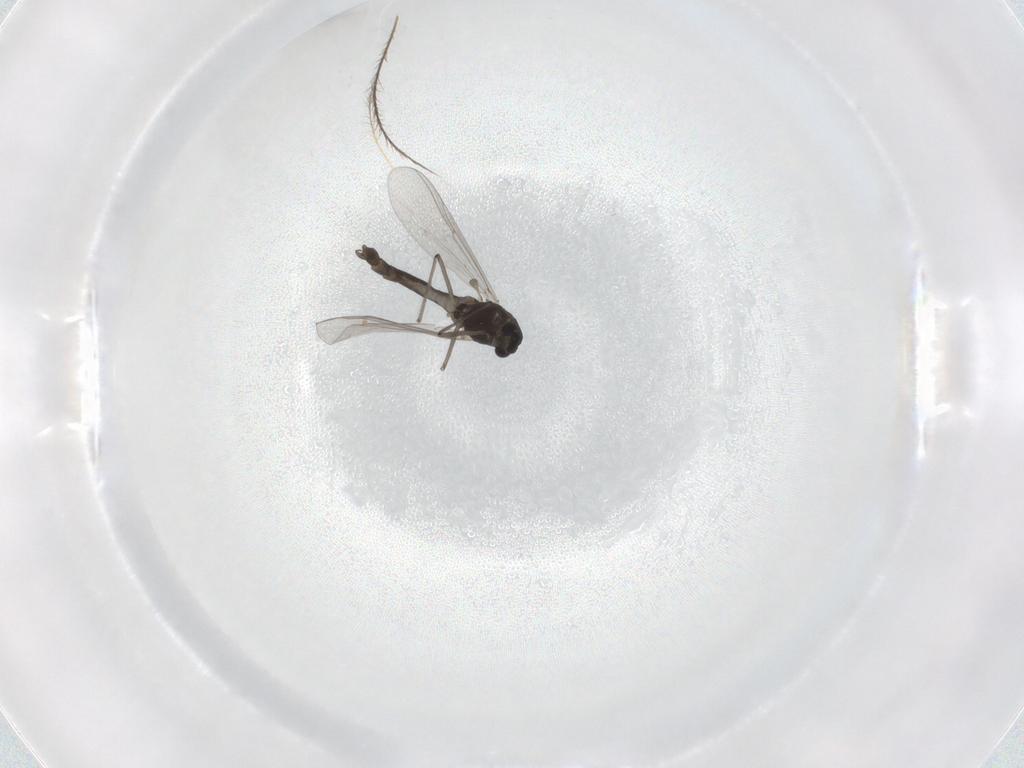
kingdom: Animalia
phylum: Arthropoda
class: Insecta
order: Diptera
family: Chironomidae
